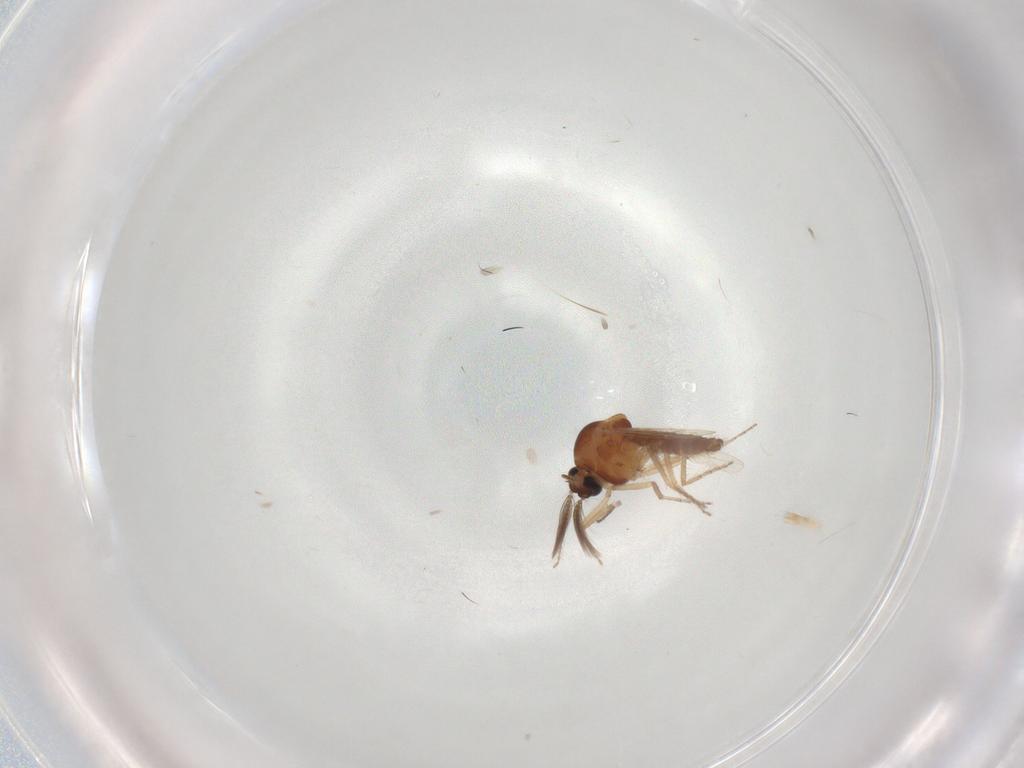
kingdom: Animalia
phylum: Arthropoda
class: Insecta
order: Diptera
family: Ceratopogonidae
